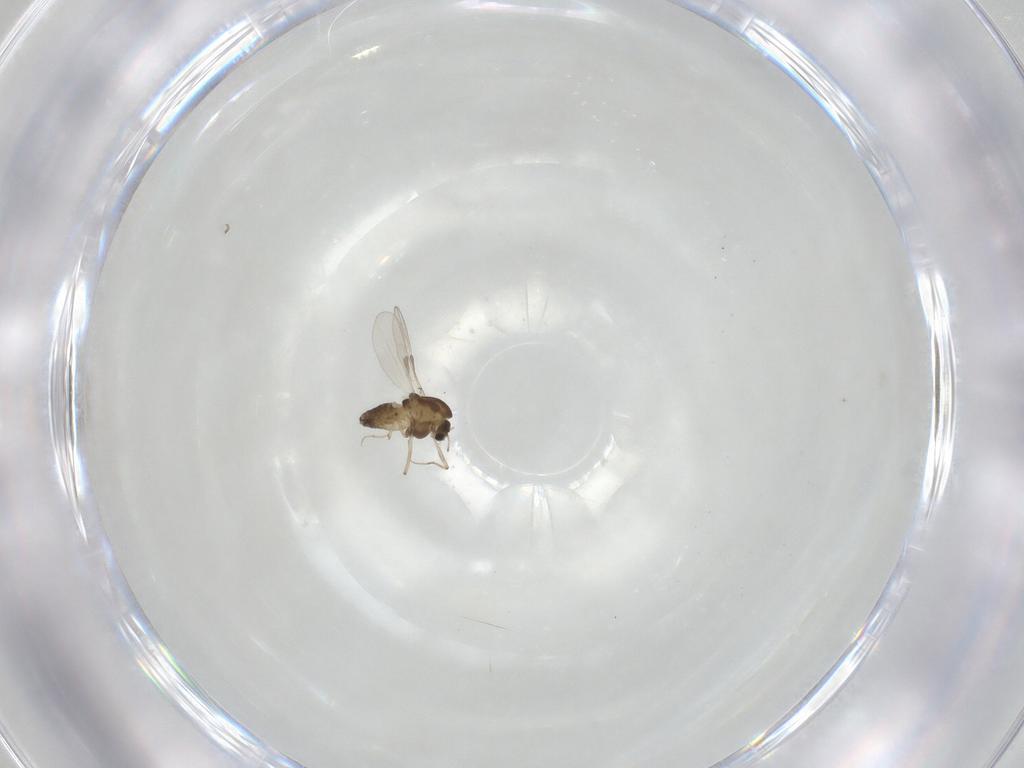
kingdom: Animalia
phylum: Arthropoda
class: Insecta
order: Diptera
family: Chironomidae
